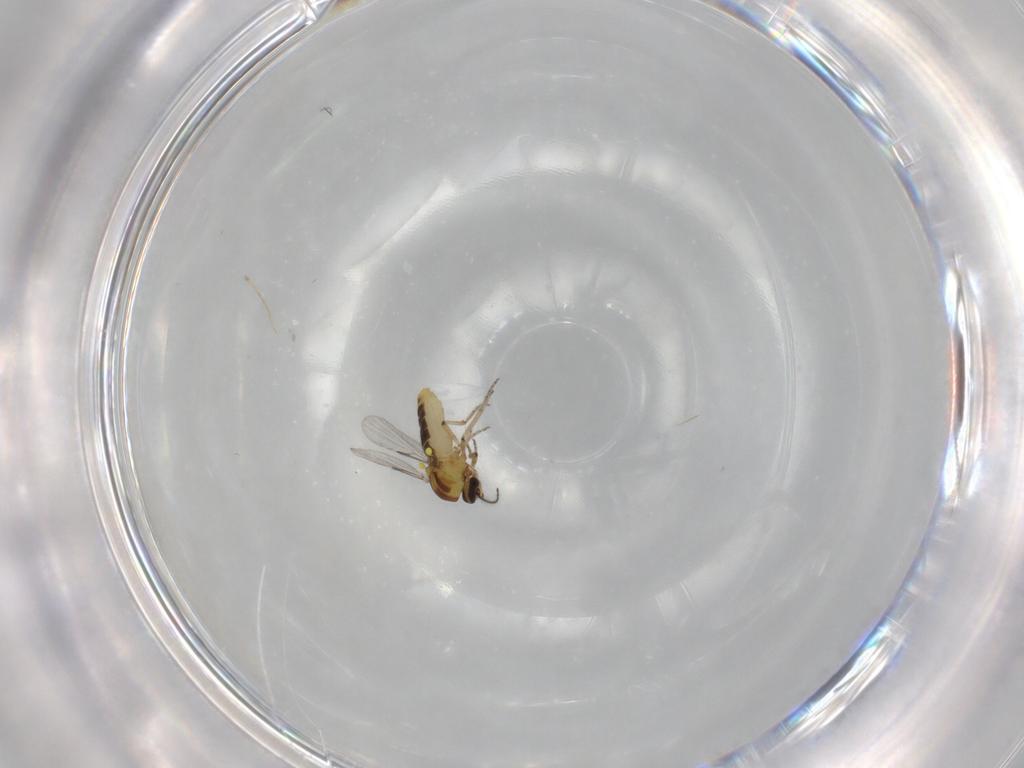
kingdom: Animalia
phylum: Arthropoda
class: Insecta
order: Diptera
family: Ceratopogonidae
